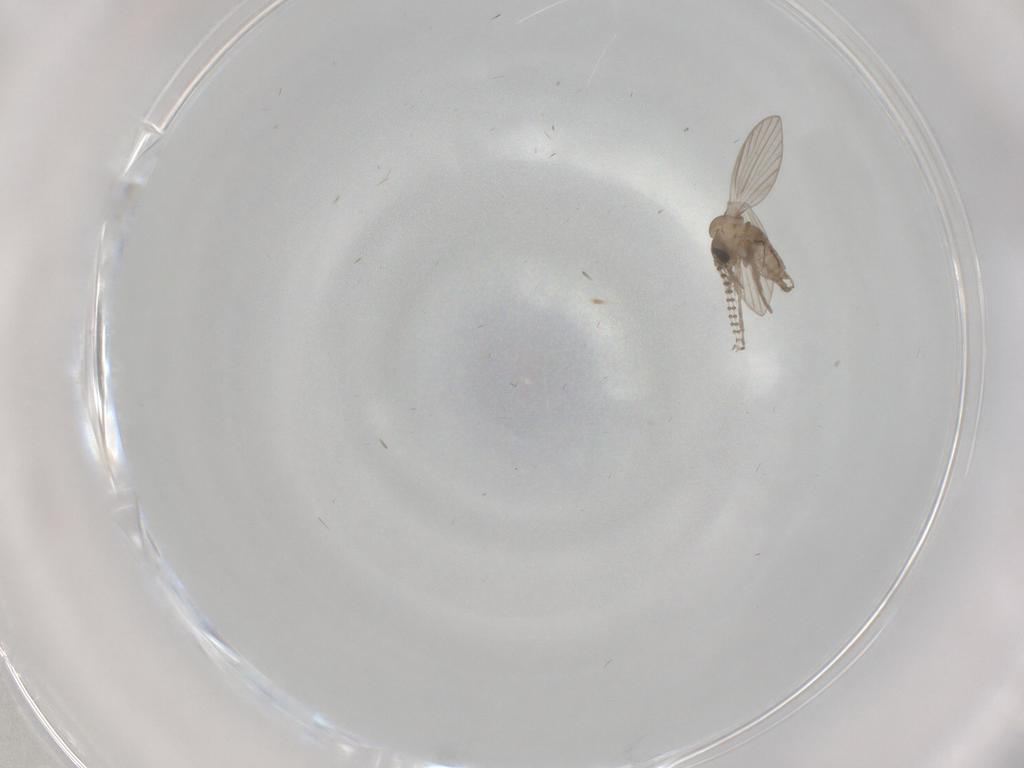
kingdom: Animalia
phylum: Arthropoda
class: Insecta
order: Diptera
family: Psychodidae
